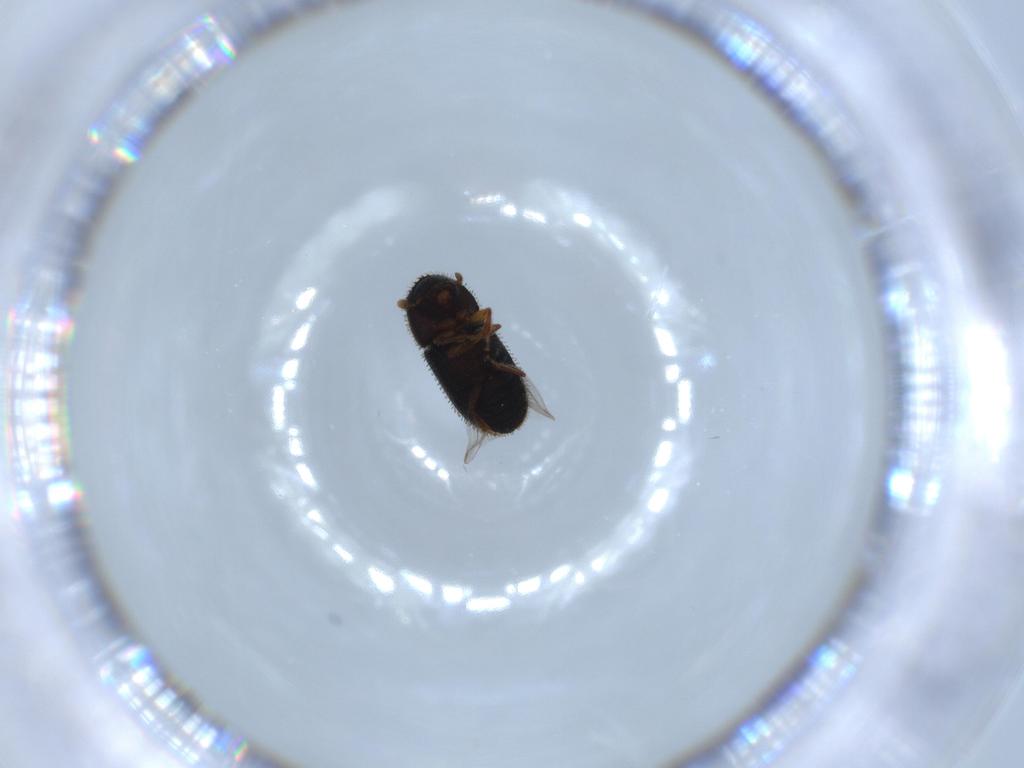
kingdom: Animalia
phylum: Arthropoda
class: Insecta
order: Coleoptera
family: Curculionidae
